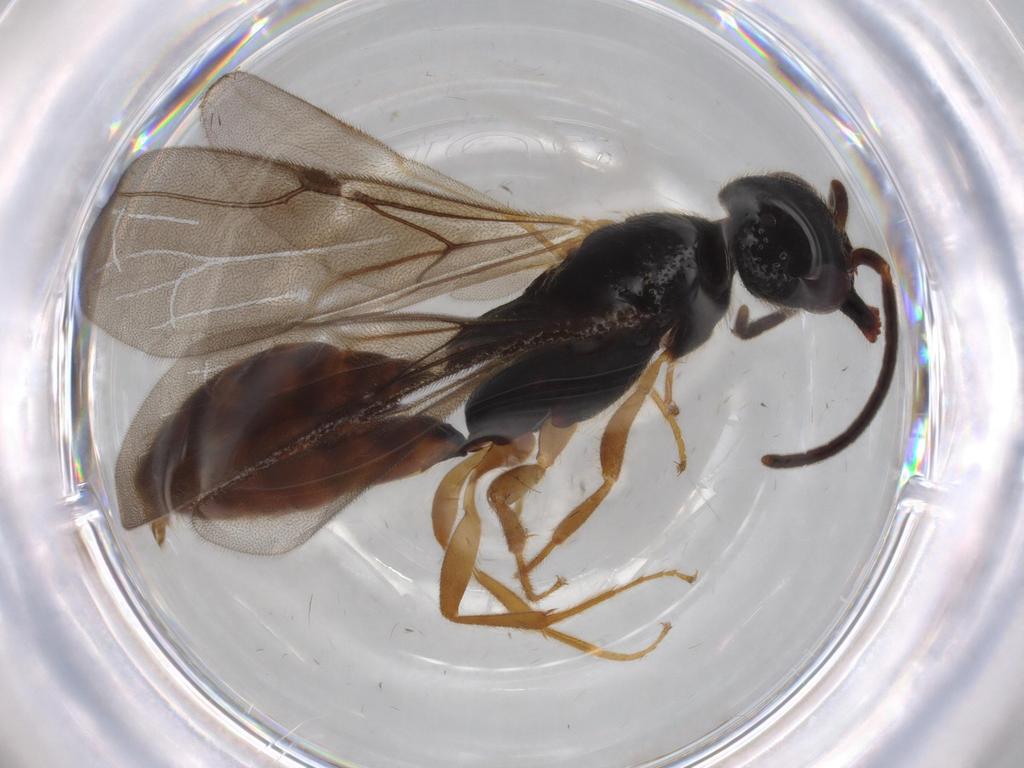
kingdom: Animalia
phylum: Arthropoda
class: Insecta
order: Hymenoptera
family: Bethylidae
